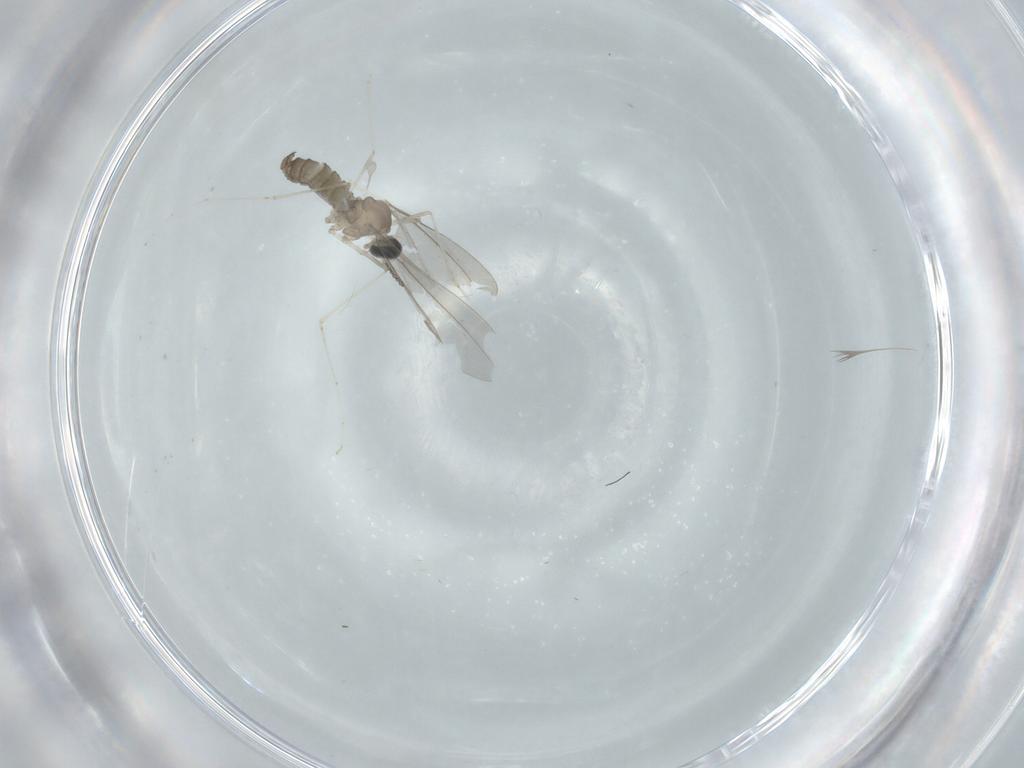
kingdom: Animalia
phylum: Arthropoda
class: Insecta
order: Diptera
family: Cecidomyiidae
